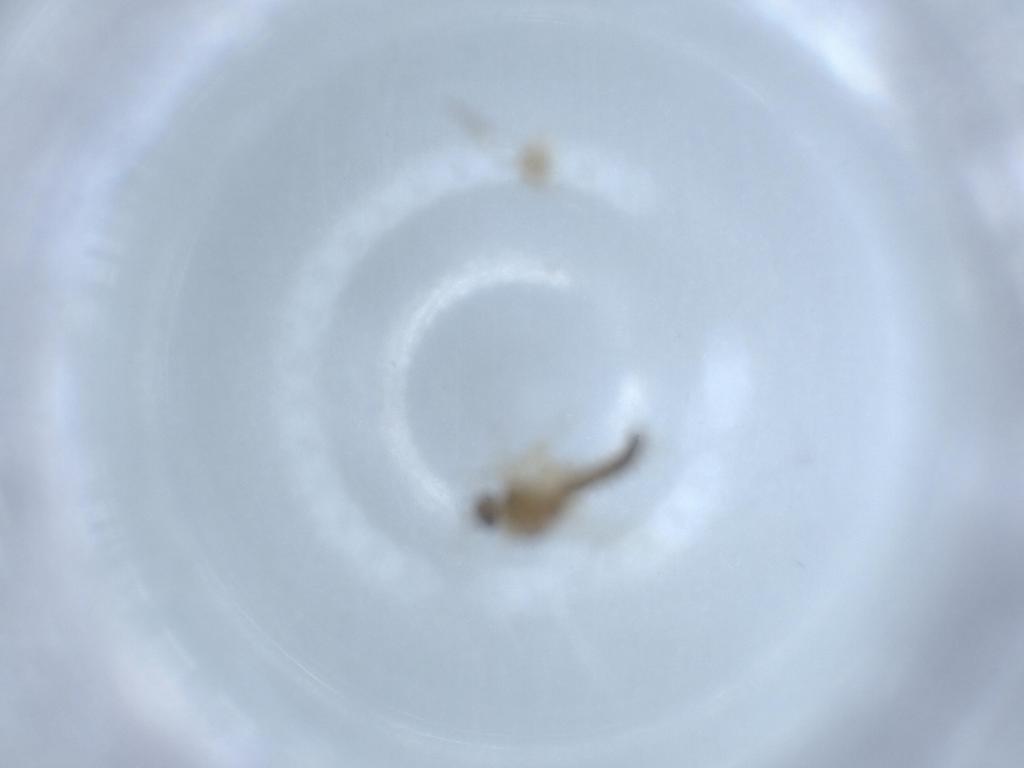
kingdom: Animalia
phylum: Arthropoda
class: Insecta
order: Diptera
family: Ceratopogonidae
